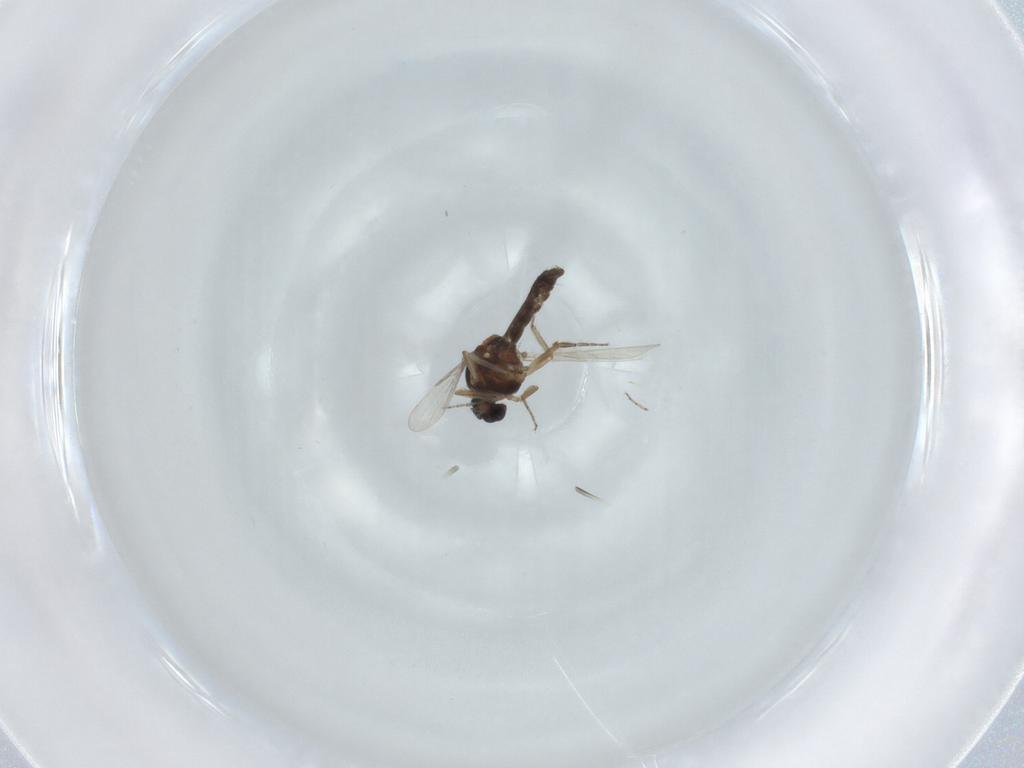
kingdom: Animalia
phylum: Arthropoda
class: Insecta
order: Diptera
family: Ceratopogonidae
